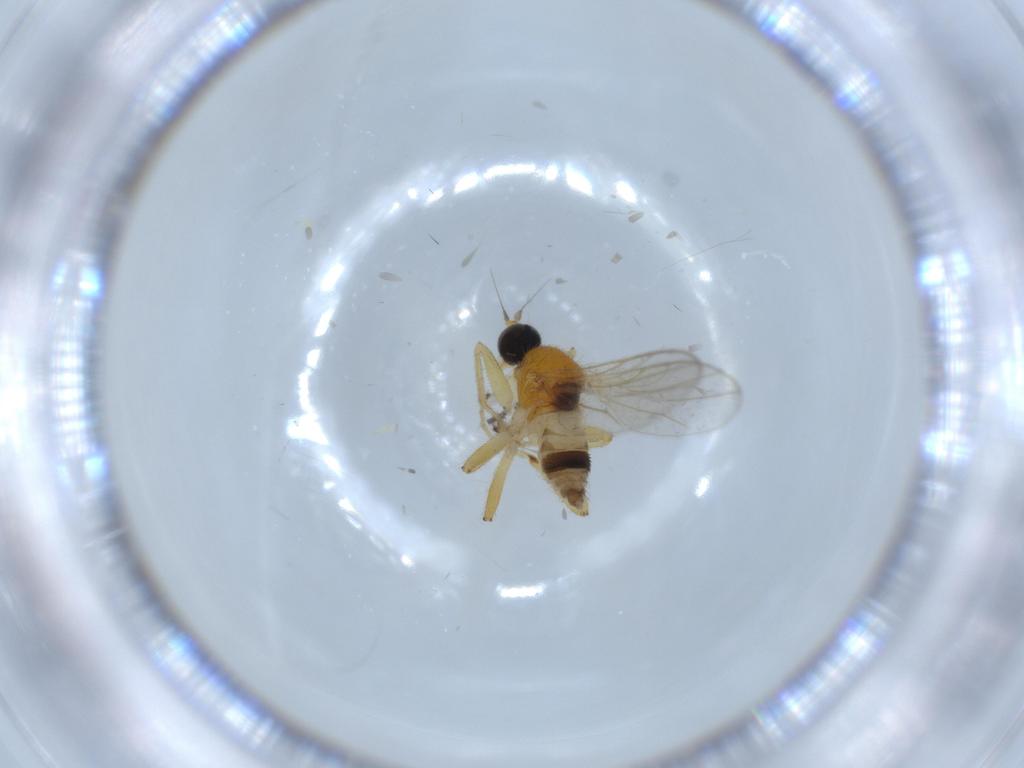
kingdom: Animalia
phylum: Arthropoda
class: Insecta
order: Diptera
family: Hybotidae
